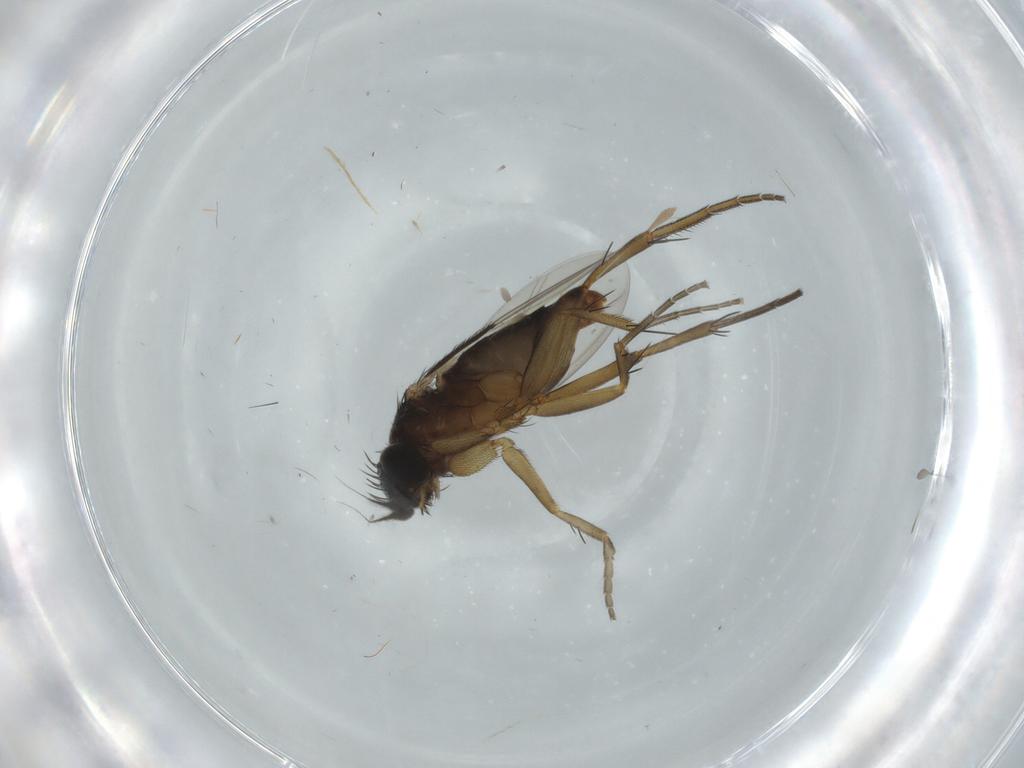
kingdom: Animalia
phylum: Arthropoda
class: Insecta
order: Diptera
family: Phoridae
